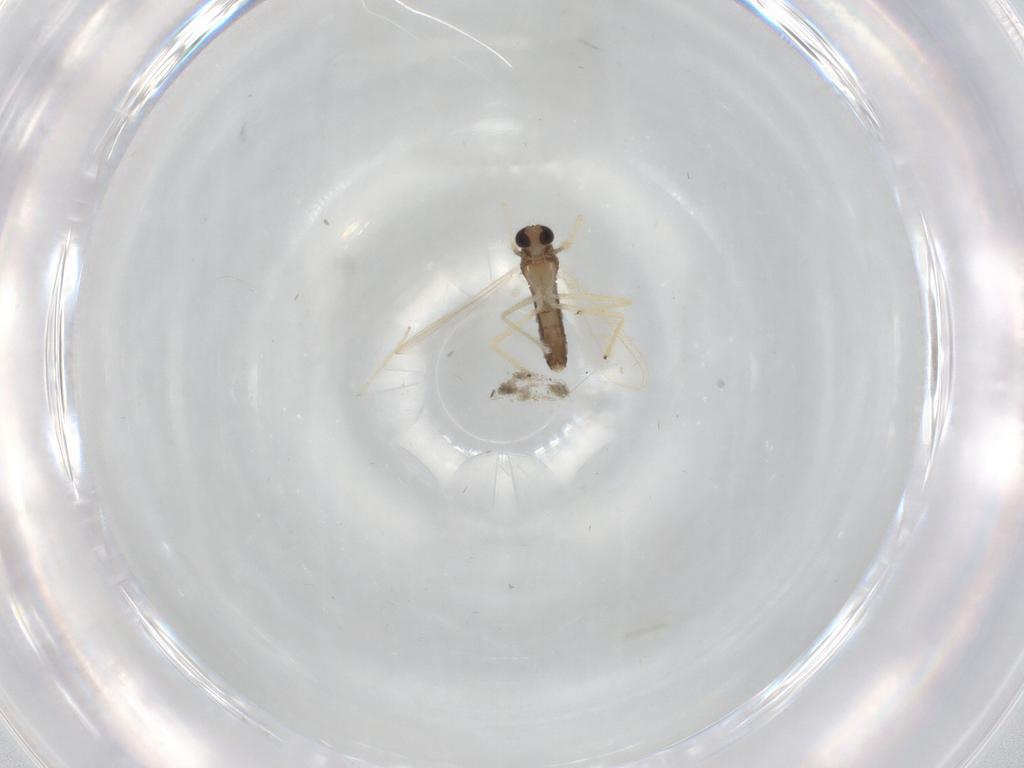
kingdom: Animalia
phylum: Arthropoda
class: Insecta
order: Diptera
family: Chironomidae
